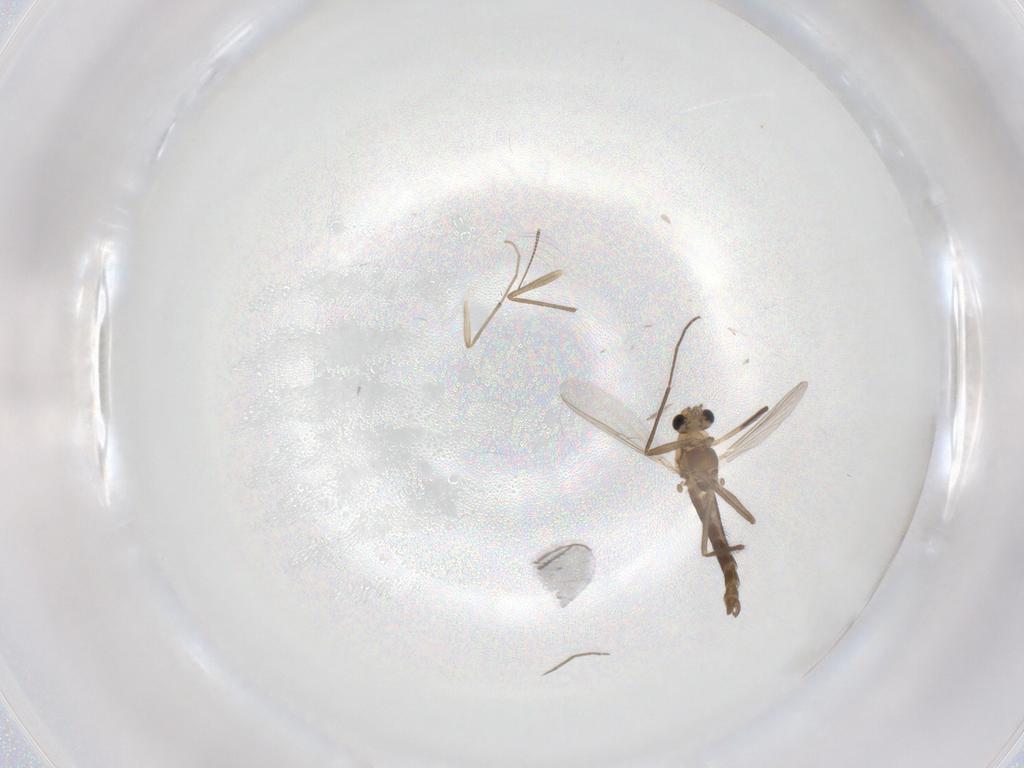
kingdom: Animalia
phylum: Arthropoda
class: Insecta
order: Diptera
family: Chironomidae
